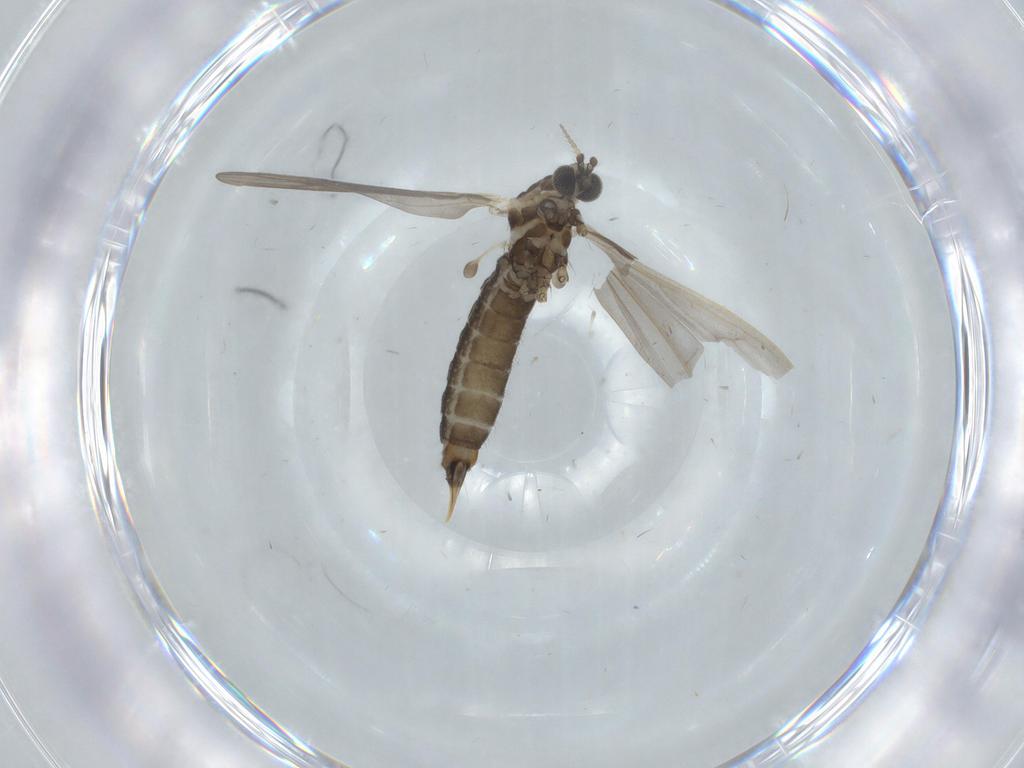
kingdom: Animalia
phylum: Arthropoda
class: Insecta
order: Diptera
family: Limoniidae
